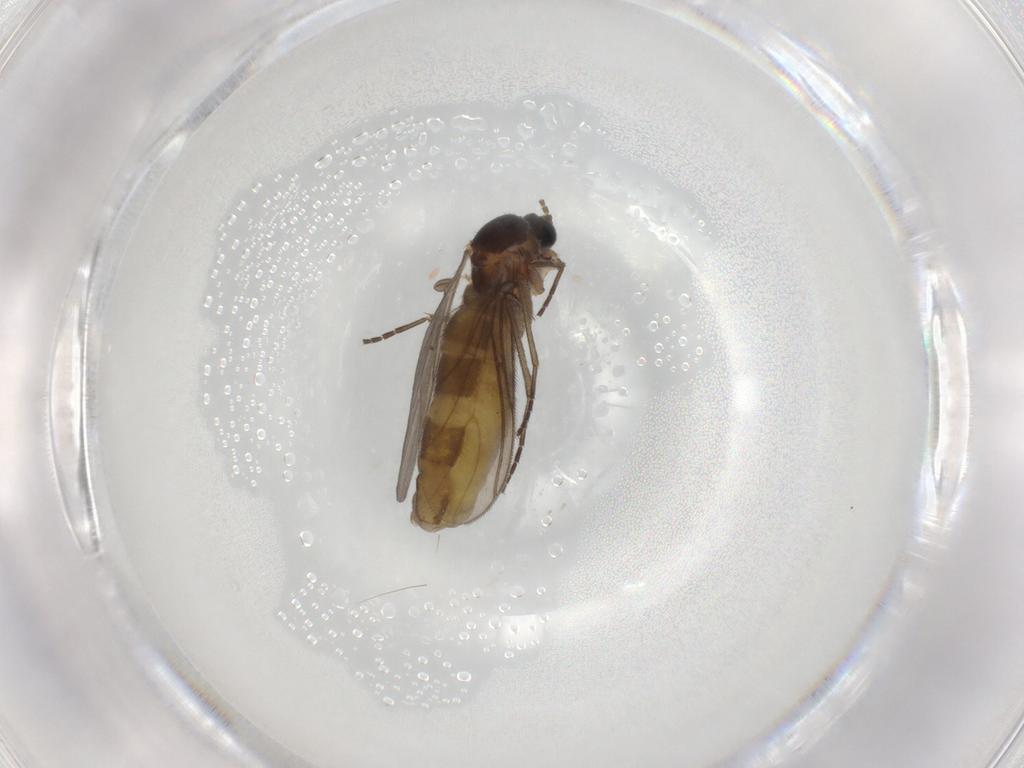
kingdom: Animalia
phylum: Arthropoda
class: Insecta
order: Diptera
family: Sciaridae
